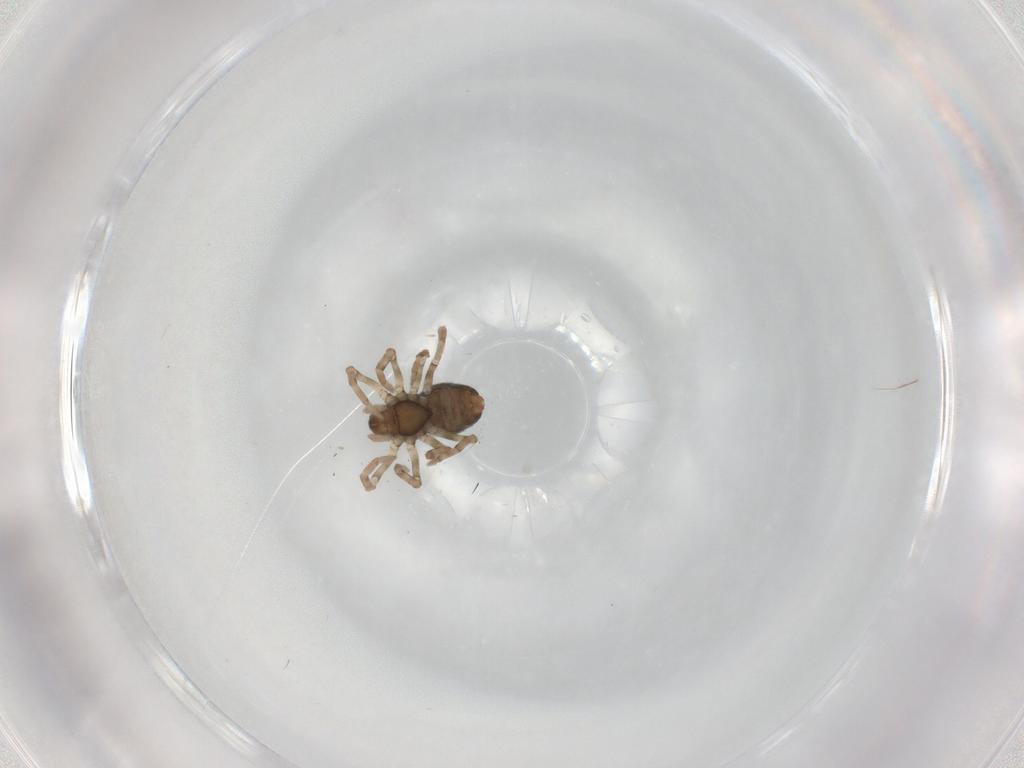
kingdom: Animalia
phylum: Arthropoda
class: Arachnida
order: Araneae
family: Dictynidae
